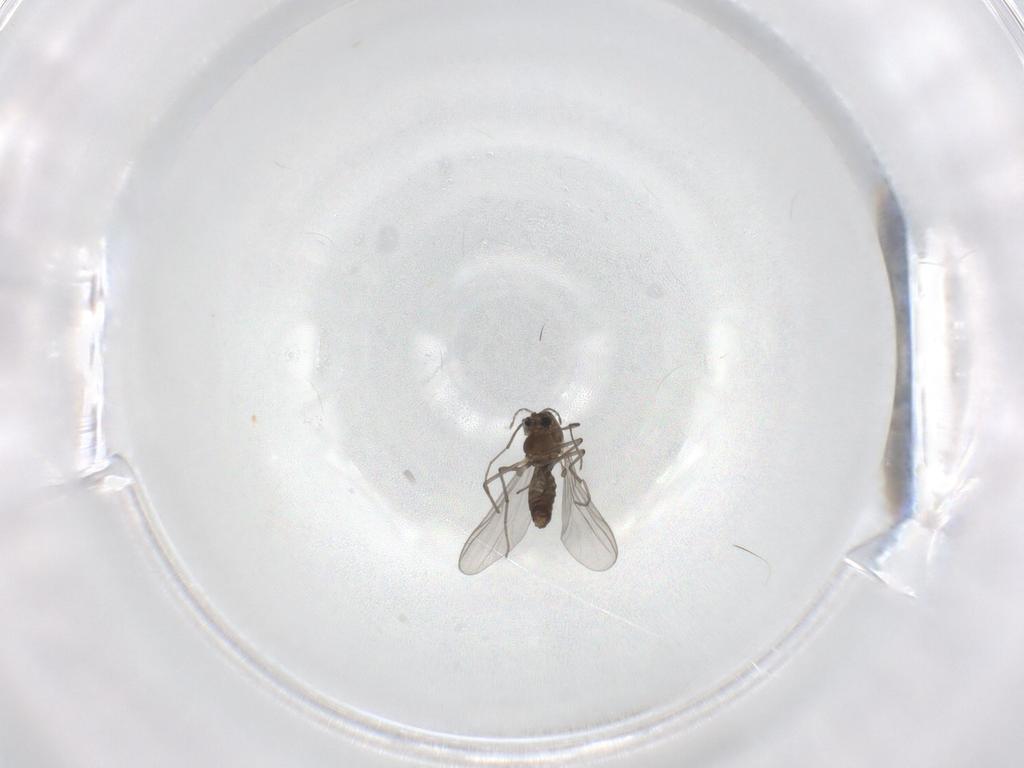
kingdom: Animalia
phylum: Arthropoda
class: Insecta
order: Diptera
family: Chironomidae
